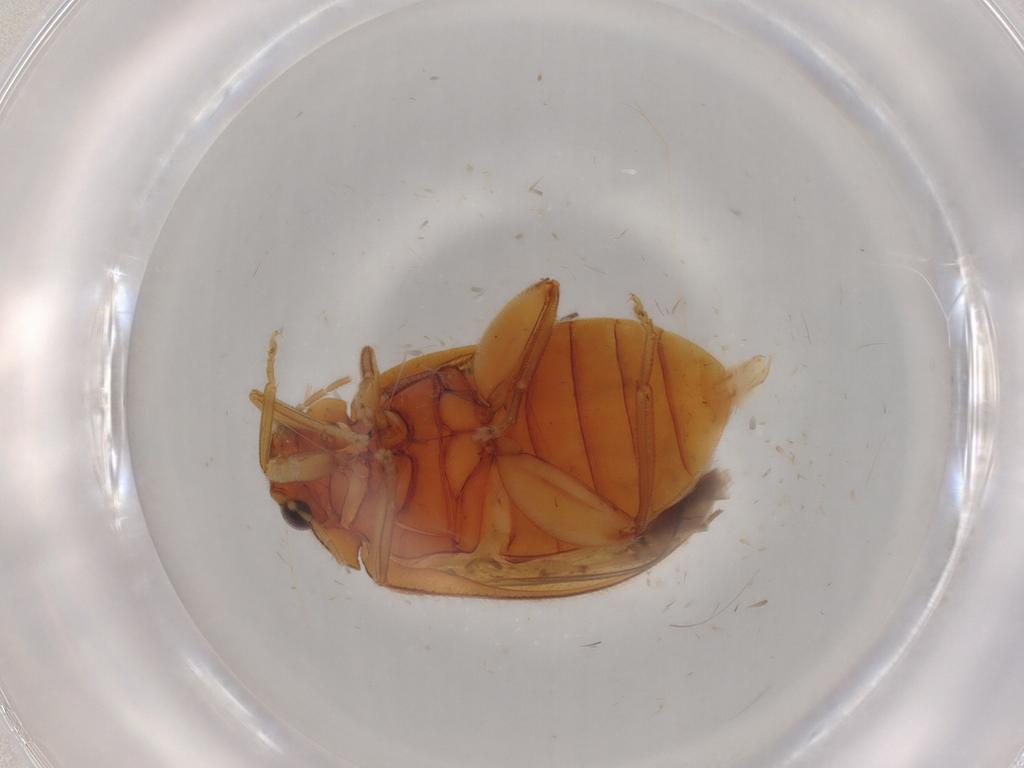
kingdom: Animalia
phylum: Arthropoda
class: Insecta
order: Coleoptera
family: Scirtidae
